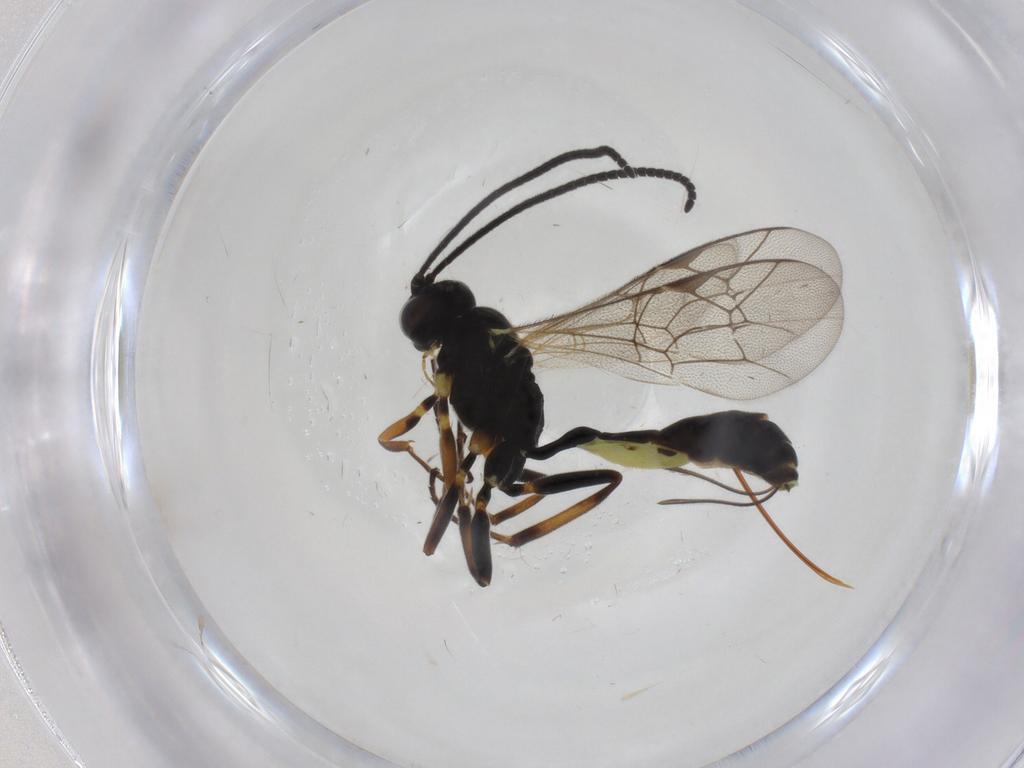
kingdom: Animalia
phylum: Arthropoda
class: Insecta
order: Hymenoptera
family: Ichneumonidae
